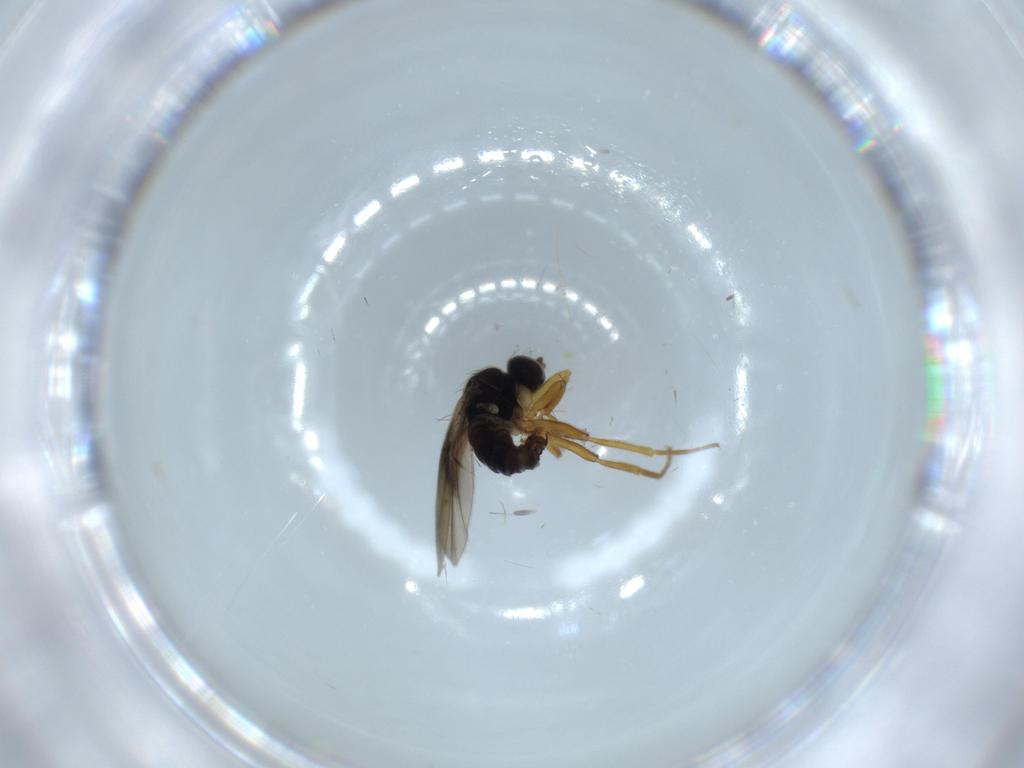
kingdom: Animalia
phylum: Arthropoda
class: Insecta
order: Diptera
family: Hybotidae
